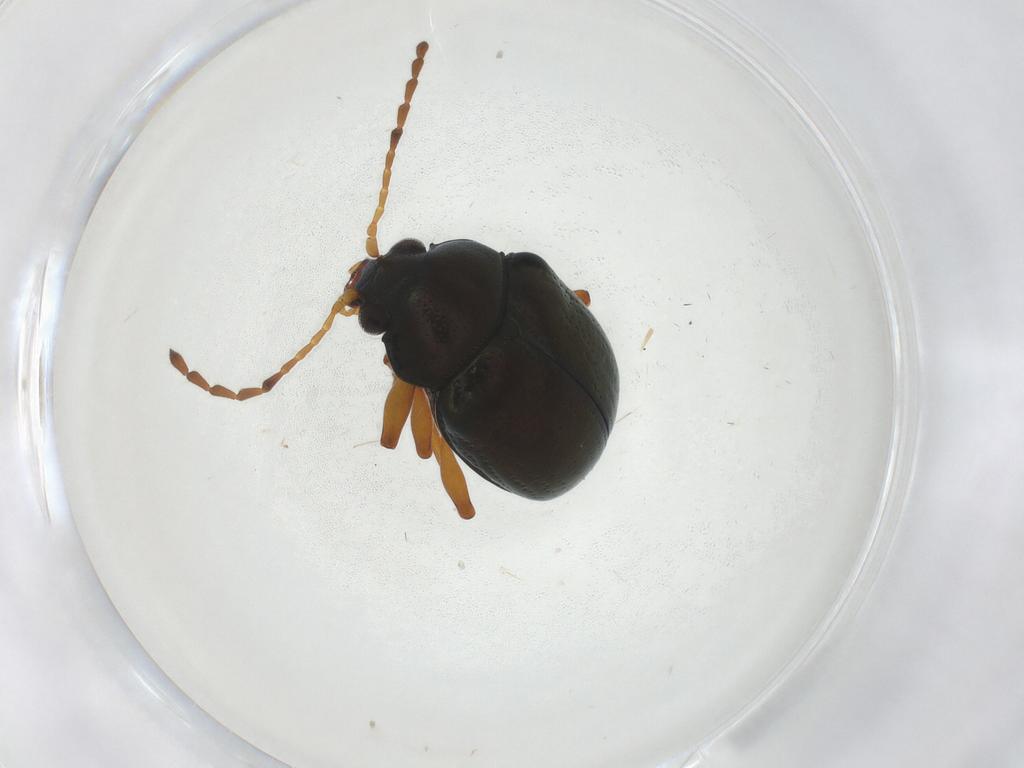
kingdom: Animalia
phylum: Arthropoda
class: Insecta
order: Coleoptera
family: Chrysomelidae
